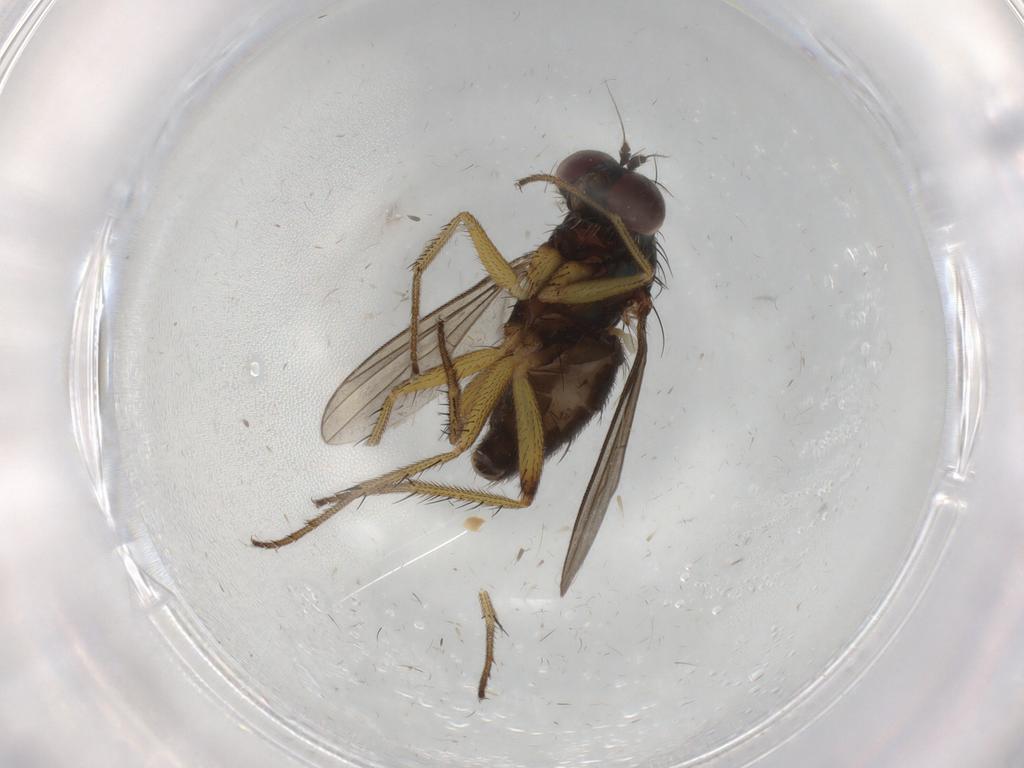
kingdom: Animalia
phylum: Arthropoda
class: Insecta
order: Diptera
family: Dolichopodidae
